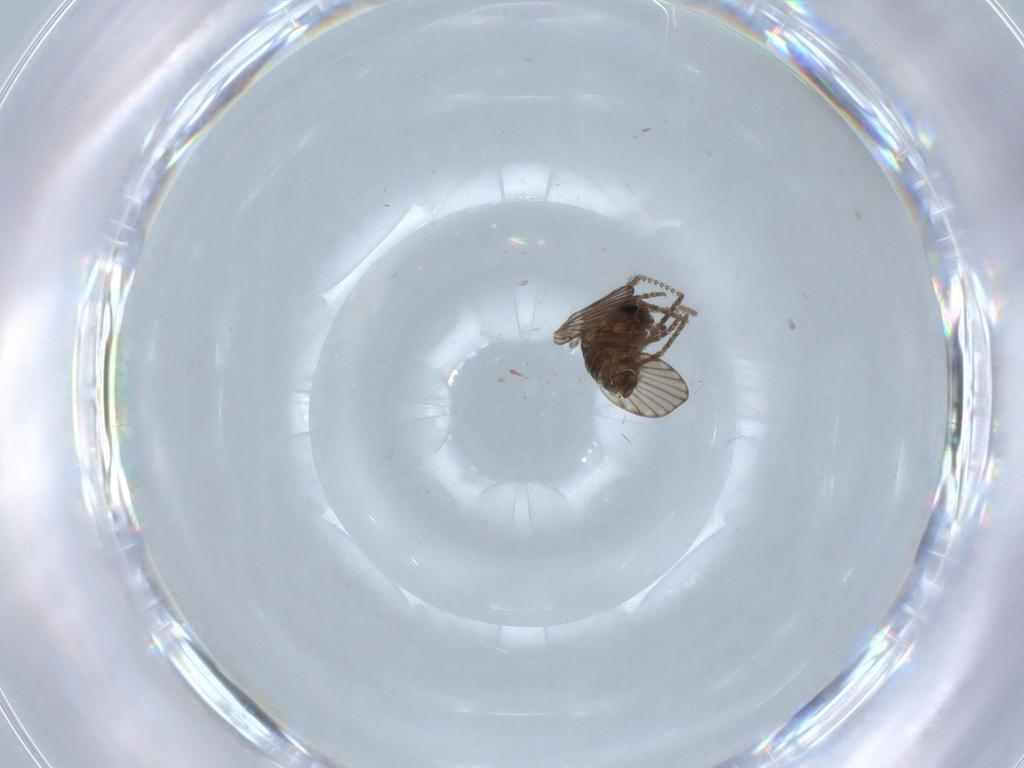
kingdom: Animalia
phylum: Arthropoda
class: Insecta
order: Diptera
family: Psychodidae
